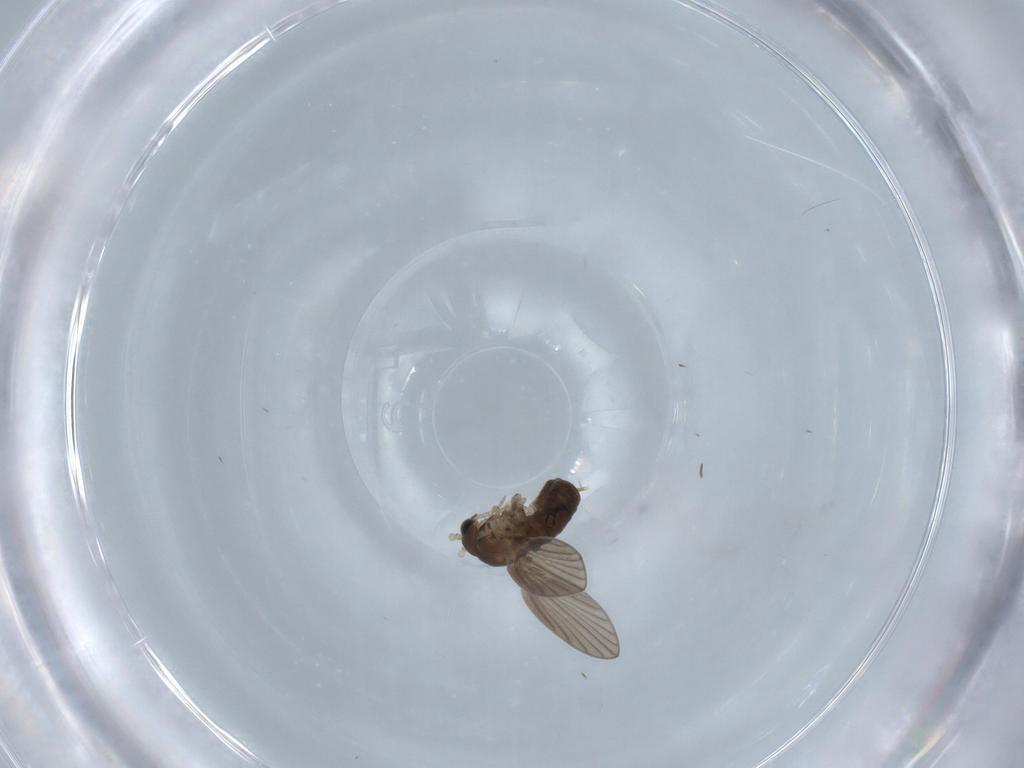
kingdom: Animalia
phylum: Arthropoda
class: Insecta
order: Diptera
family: Psychodidae
